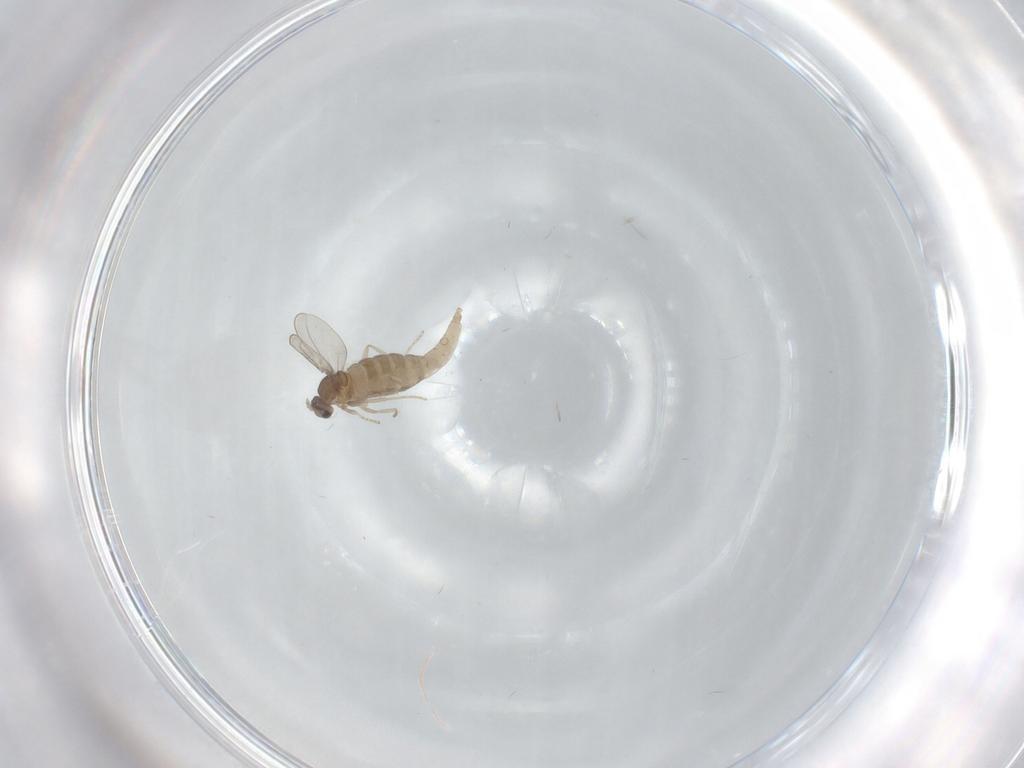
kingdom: Animalia
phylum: Arthropoda
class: Insecta
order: Diptera
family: Cecidomyiidae
